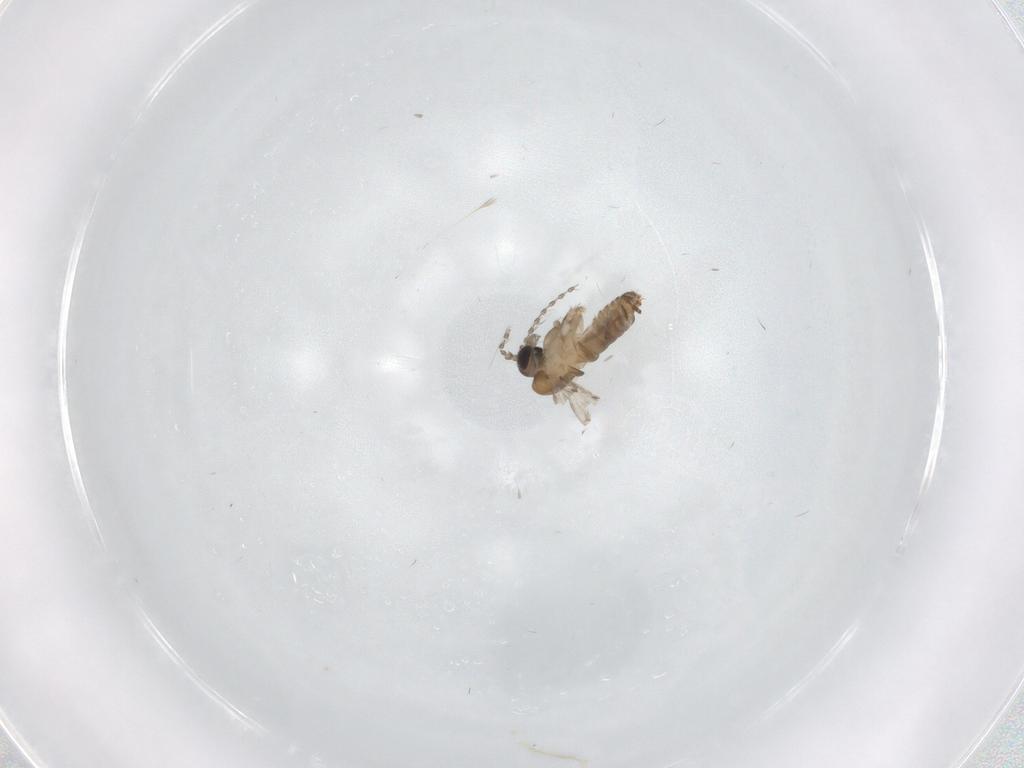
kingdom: Animalia
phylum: Arthropoda
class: Insecta
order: Diptera
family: Psychodidae
